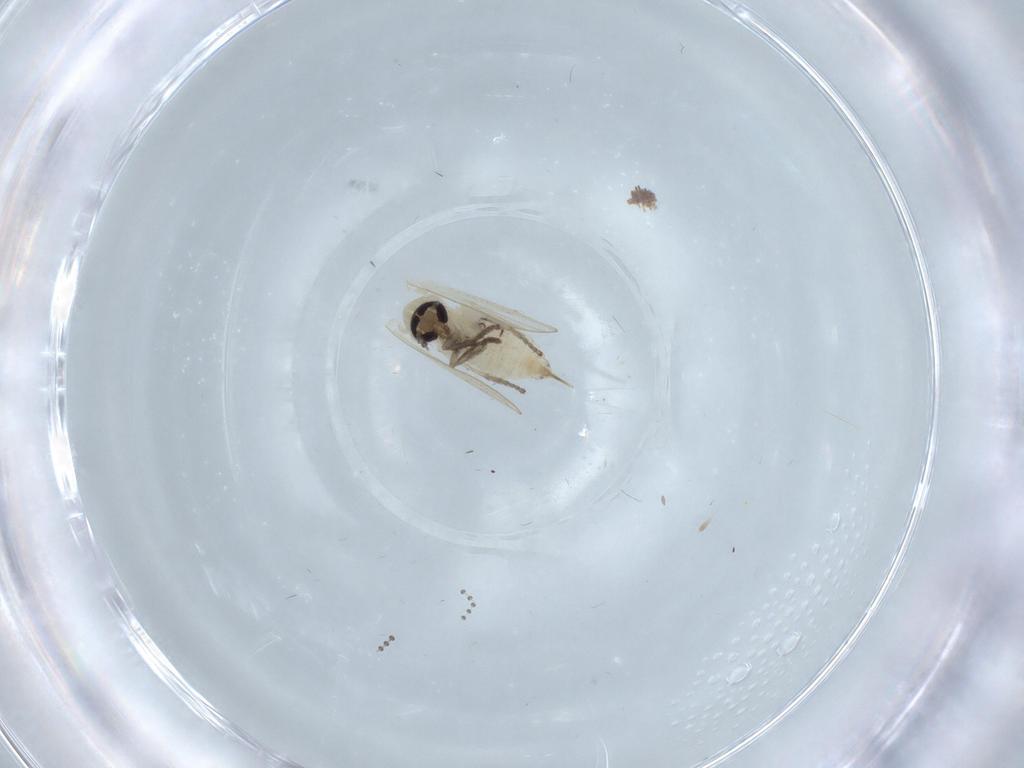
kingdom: Animalia
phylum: Arthropoda
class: Insecta
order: Diptera
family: Psychodidae
